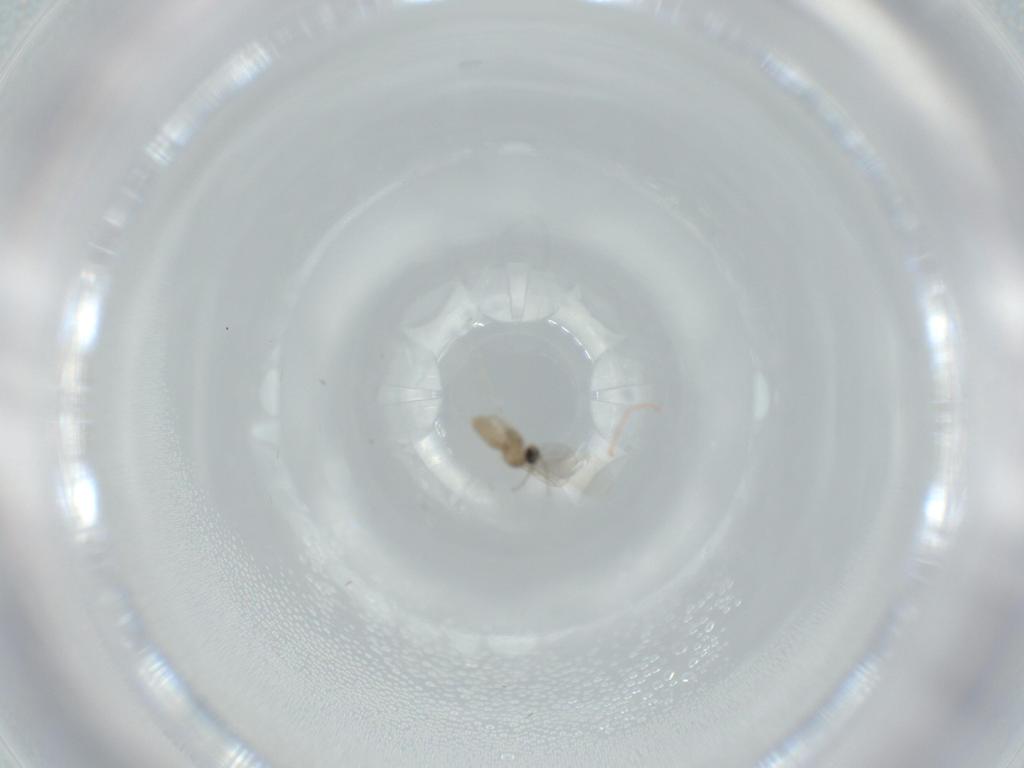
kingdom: Animalia
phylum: Arthropoda
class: Insecta
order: Diptera
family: Cecidomyiidae
